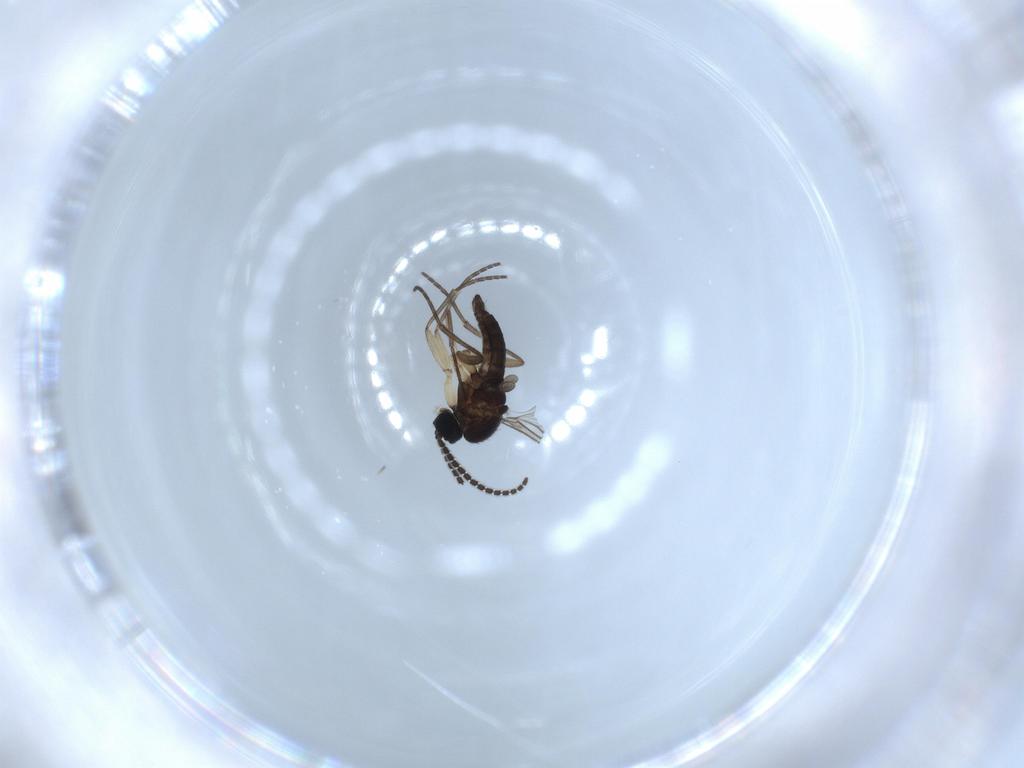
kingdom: Animalia
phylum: Arthropoda
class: Insecta
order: Diptera
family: Sciaridae
